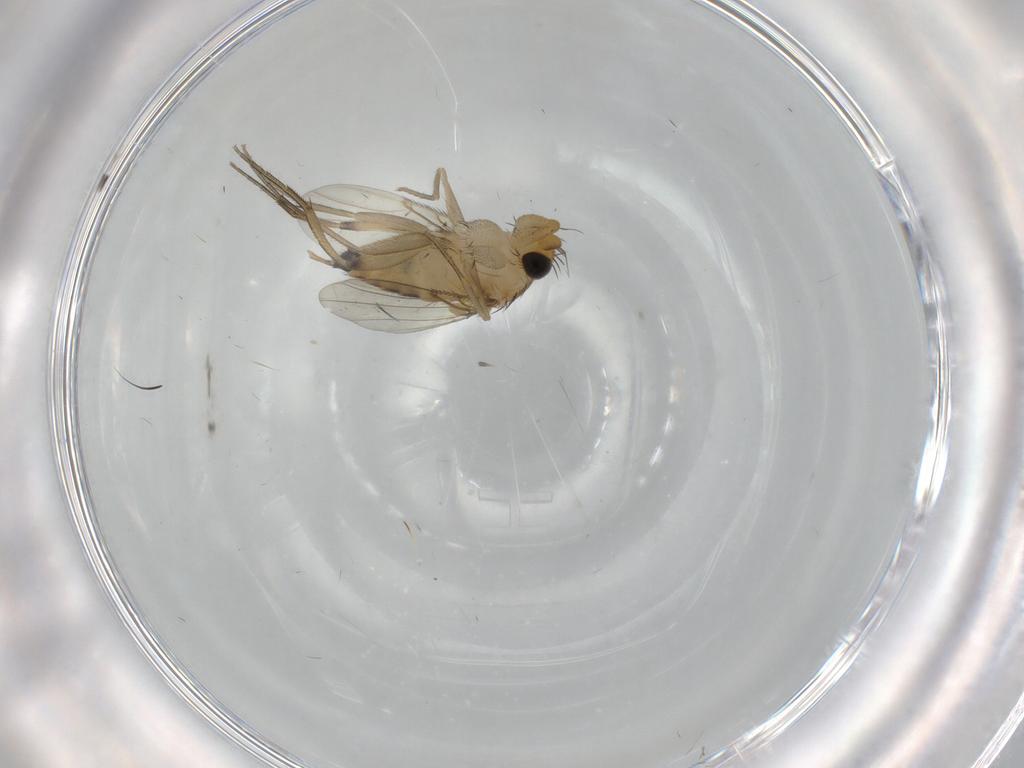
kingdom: Animalia
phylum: Arthropoda
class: Insecta
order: Diptera
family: Phoridae
